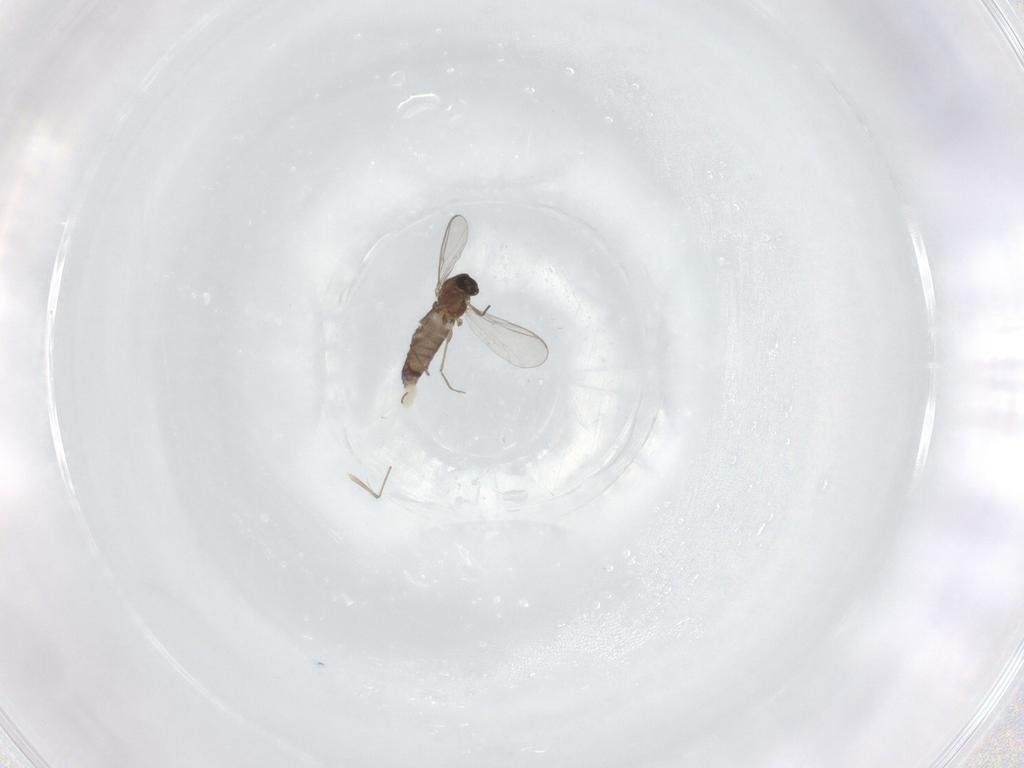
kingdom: Animalia
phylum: Arthropoda
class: Insecta
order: Diptera
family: Chironomidae
